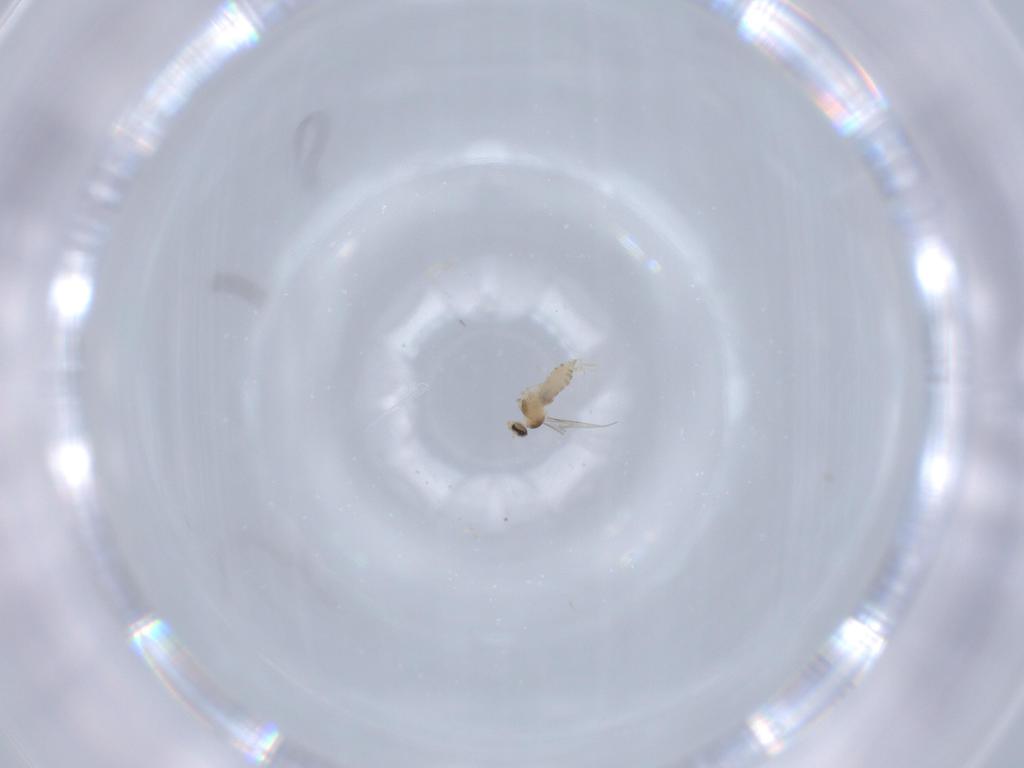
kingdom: Animalia
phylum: Arthropoda
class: Insecta
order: Diptera
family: Cecidomyiidae
